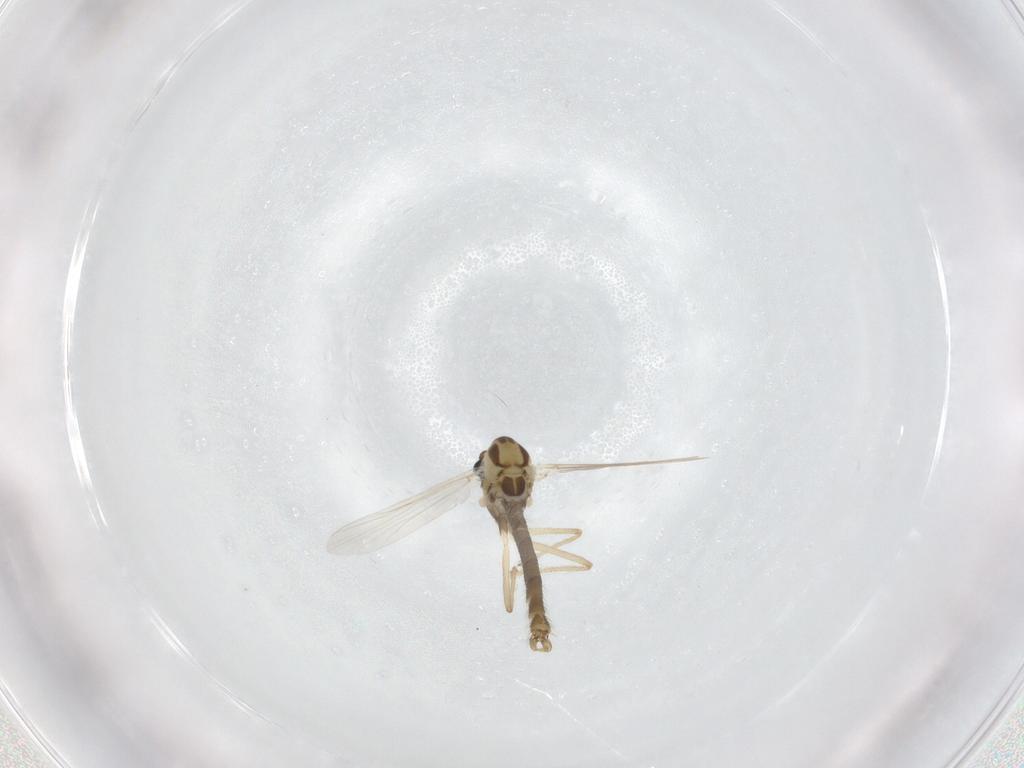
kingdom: Animalia
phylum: Arthropoda
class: Insecta
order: Diptera
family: Chironomidae
